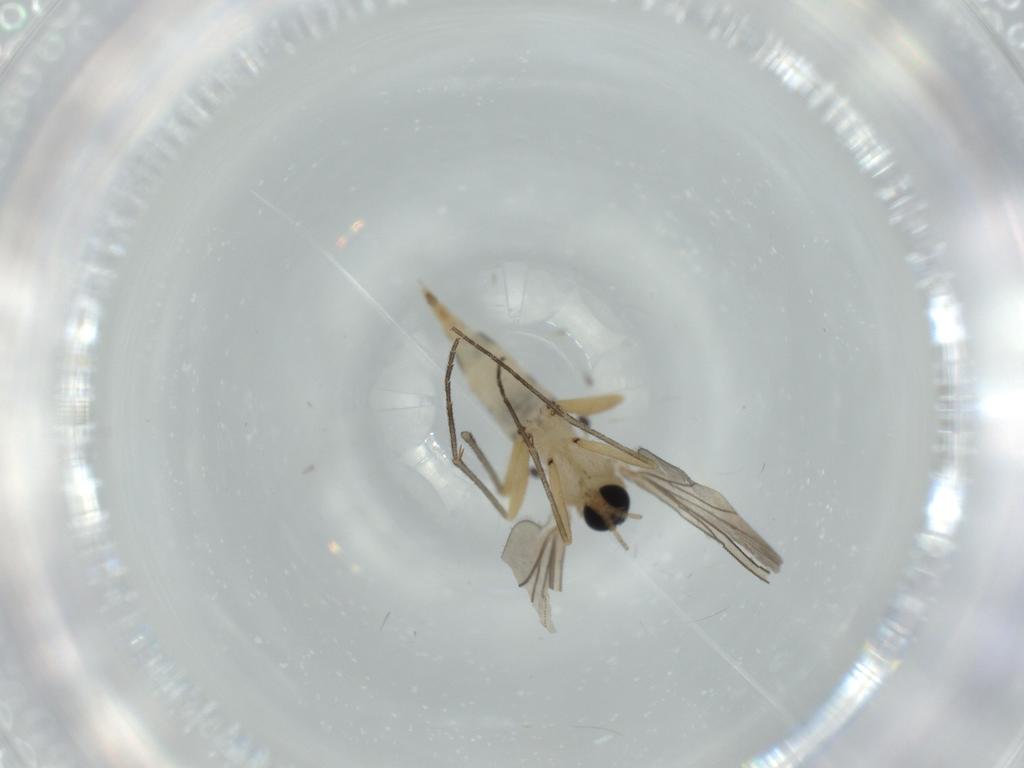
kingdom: Animalia
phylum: Arthropoda
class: Insecta
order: Diptera
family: Sciaridae
